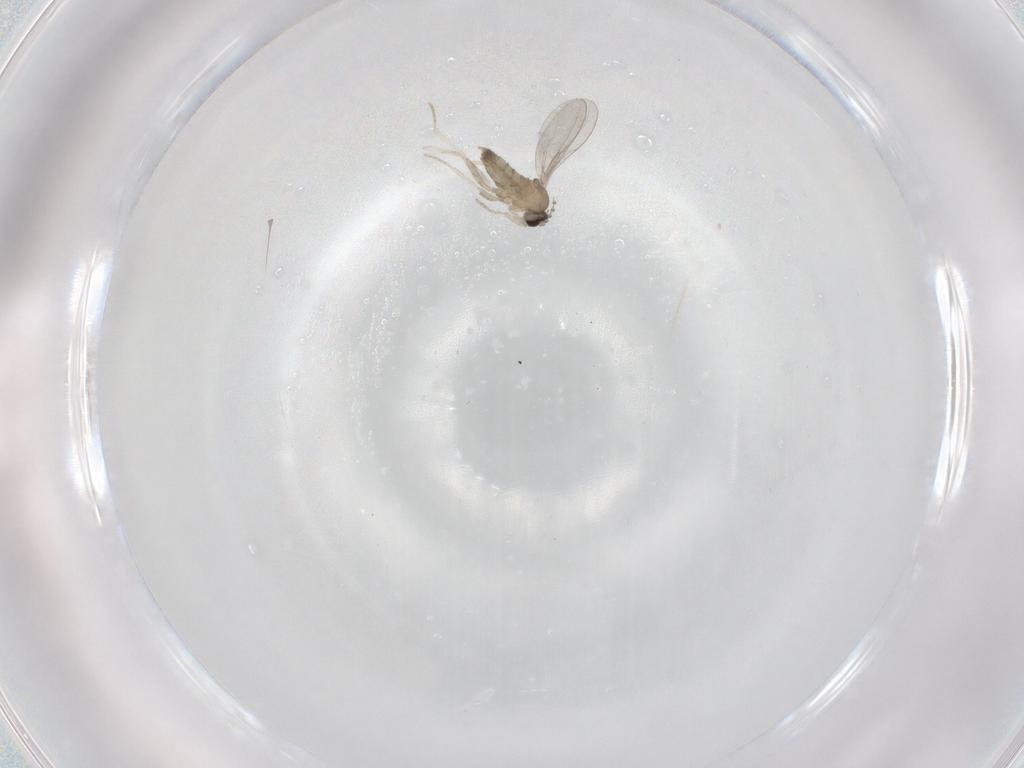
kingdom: Animalia
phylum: Arthropoda
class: Insecta
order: Diptera
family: Cecidomyiidae
